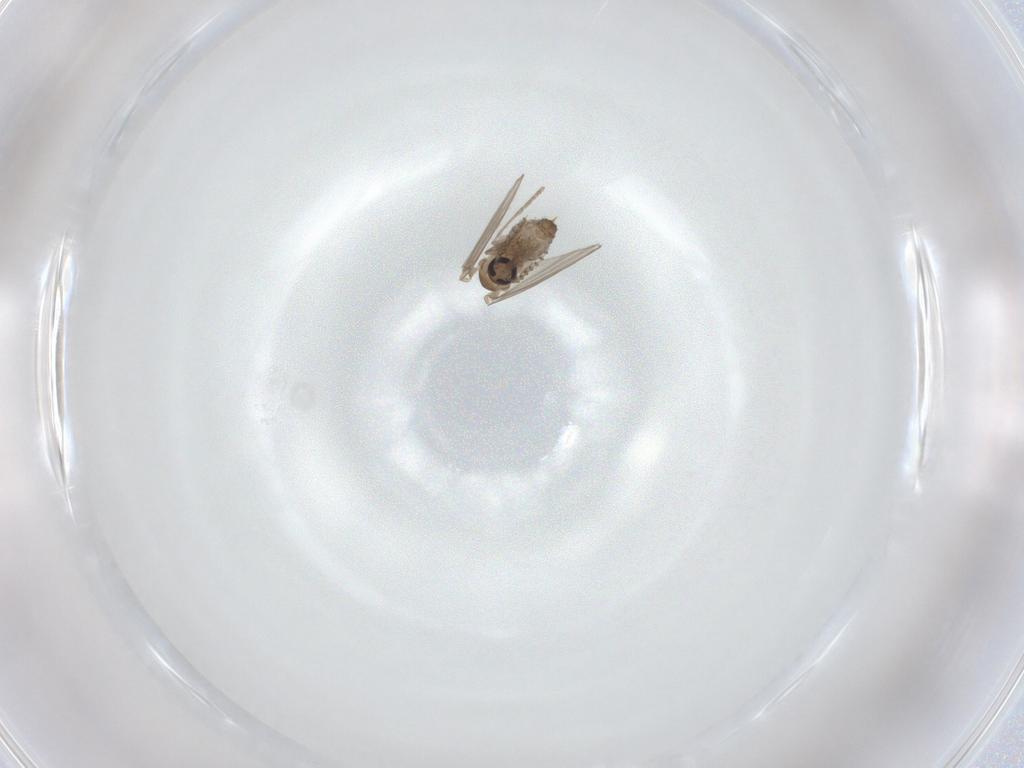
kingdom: Animalia
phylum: Arthropoda
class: Insecta
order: Diptera
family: Psychodidae
